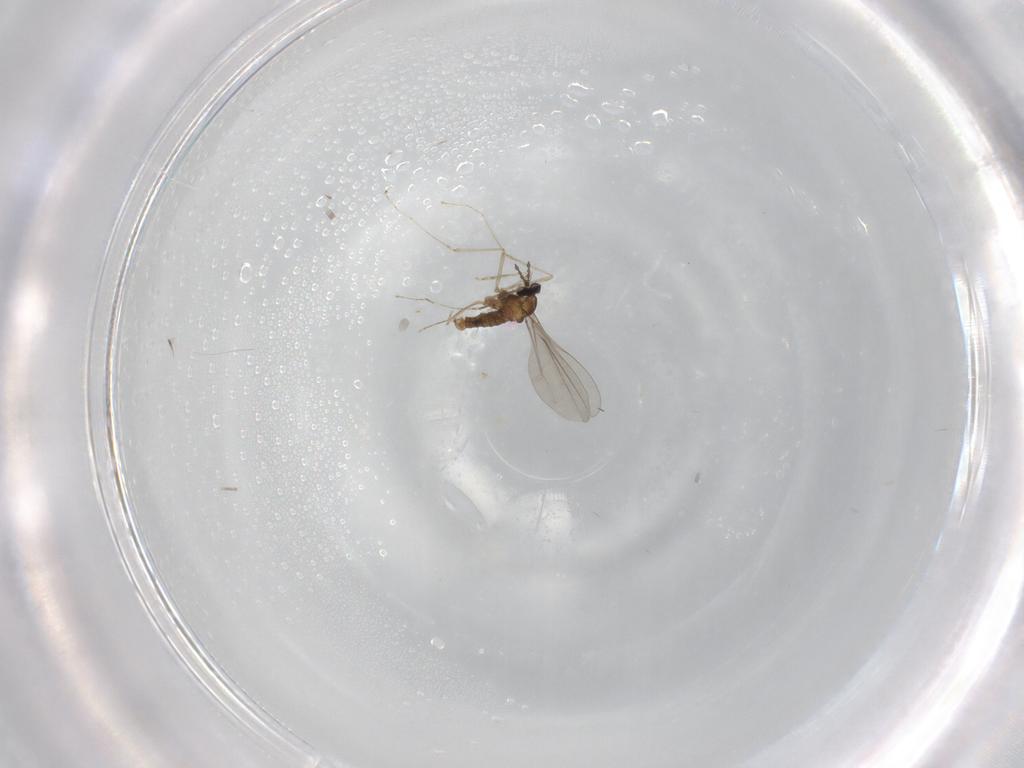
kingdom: Animalia
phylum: Arthropoda
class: Insecta
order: Diptera
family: Cecidomyiidae
